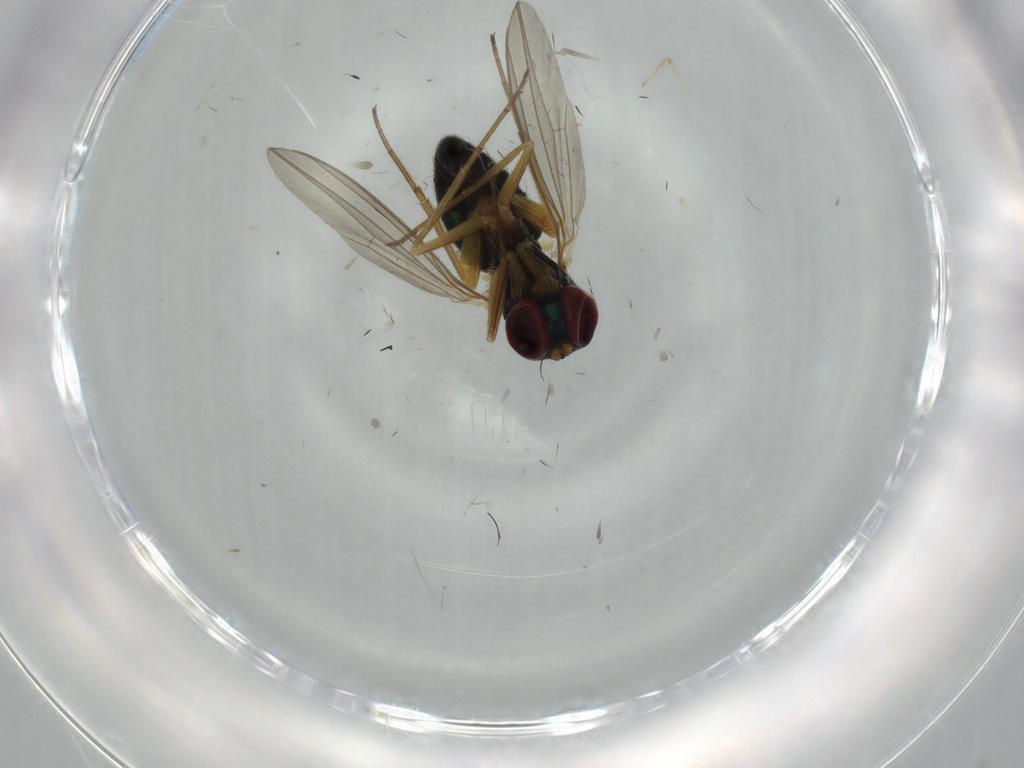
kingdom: Animalia
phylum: Arthropoda
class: Insecta
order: Diptera
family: Dolichopodidae
